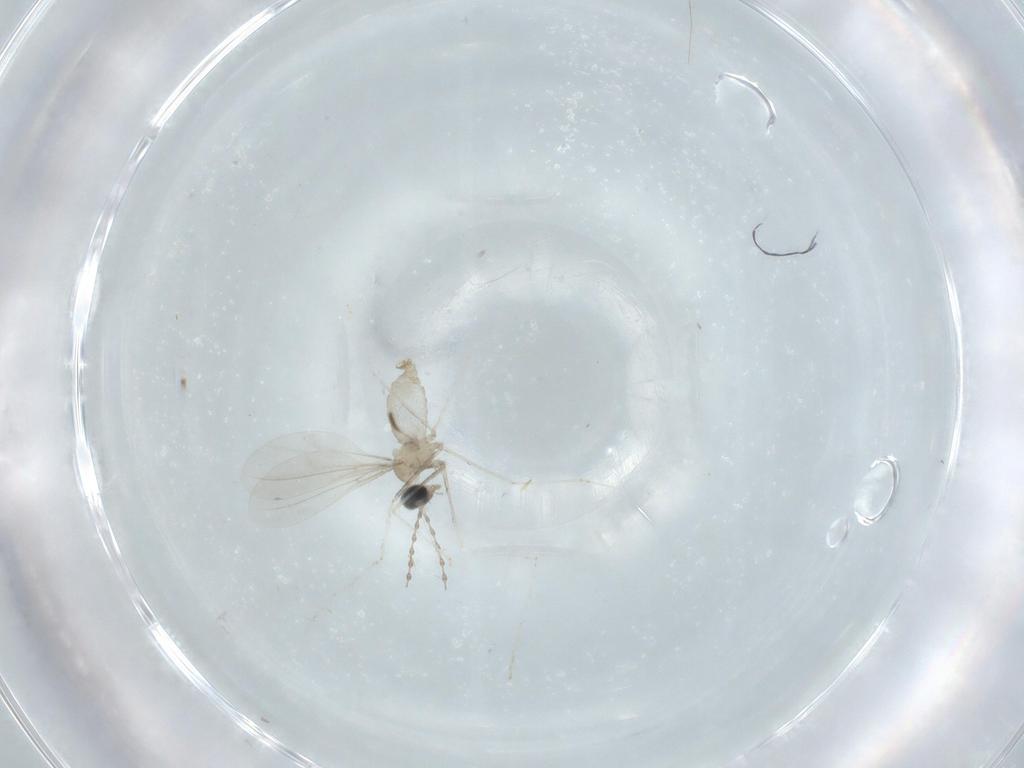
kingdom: Animalia
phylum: Arthropoda
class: Insecta
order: Diptera
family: Cecidomyiidae
